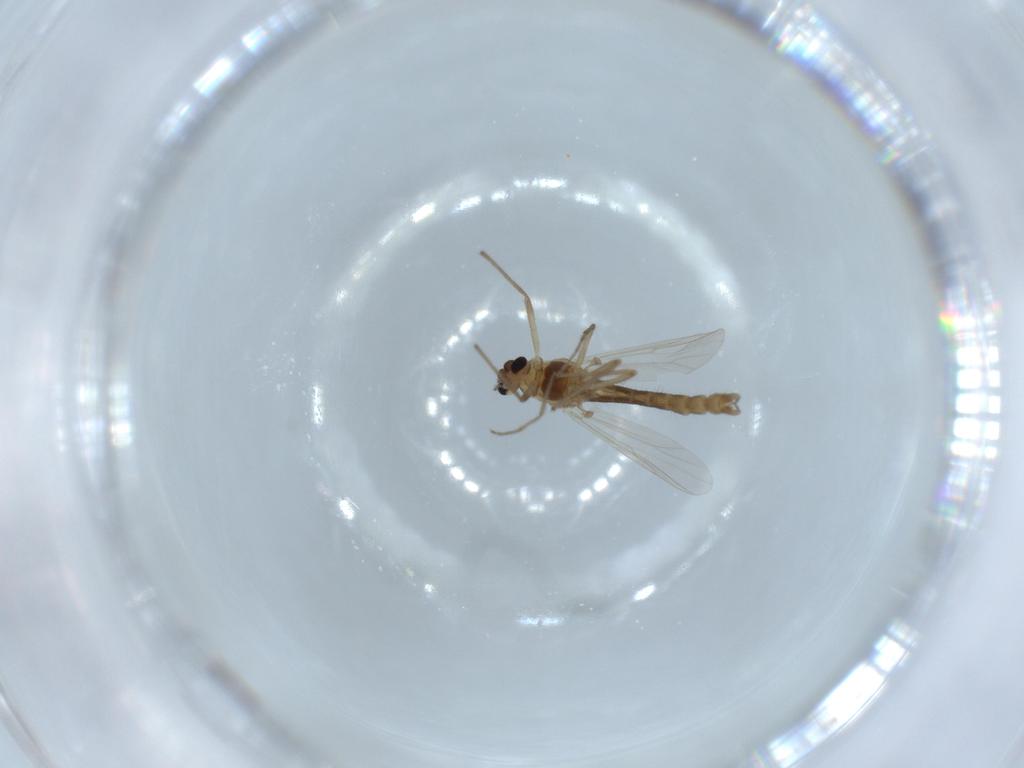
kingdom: Animalia
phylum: Arthropoda
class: Insecta
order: Diptera
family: Chironomidae
